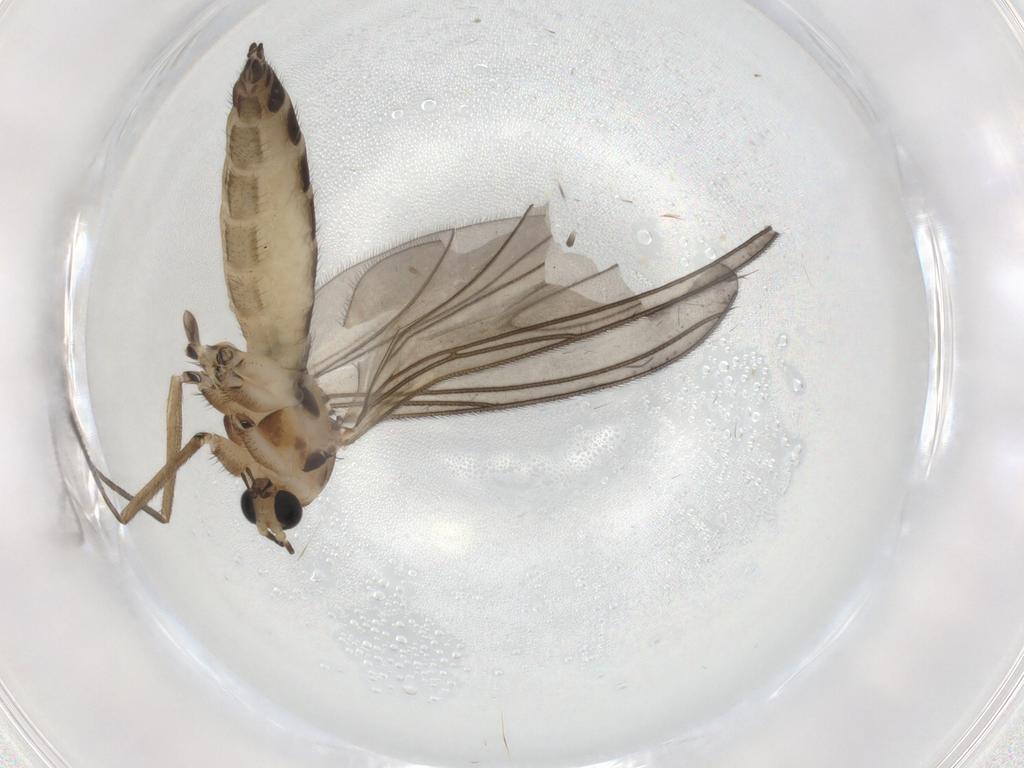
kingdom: Animalia
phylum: Arthropoda
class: Insecta
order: Diptera
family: Sciaridae
